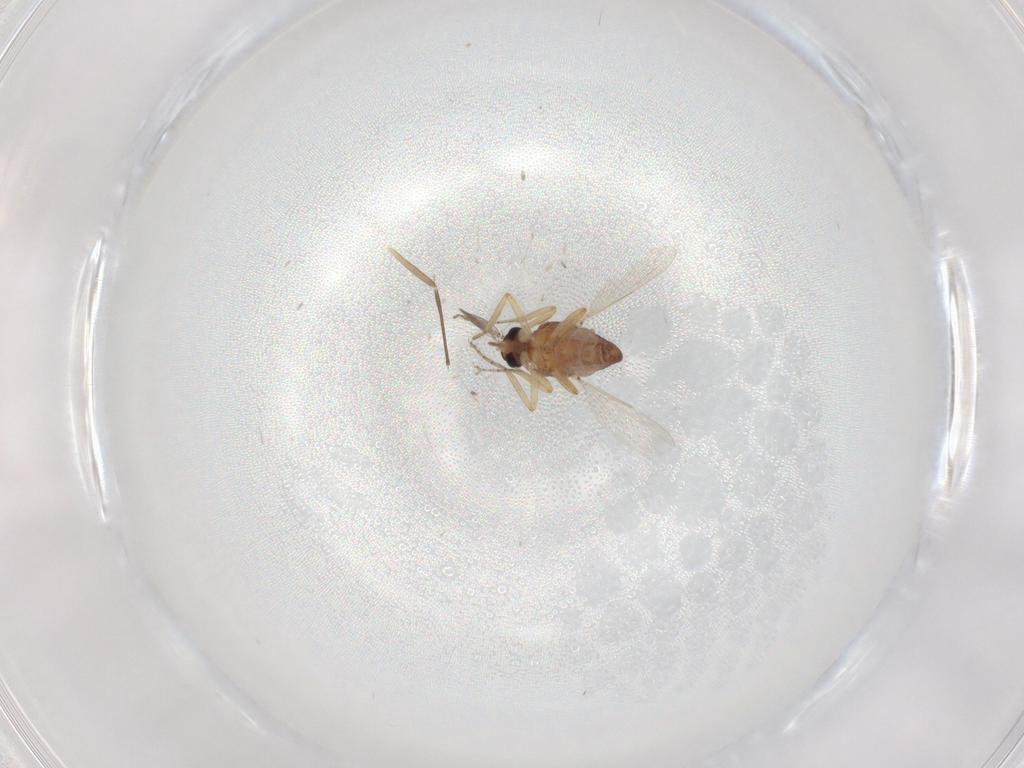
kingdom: Animalia
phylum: Arthropoda
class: Insecta
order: Diptera
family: Ceratopogonidae
